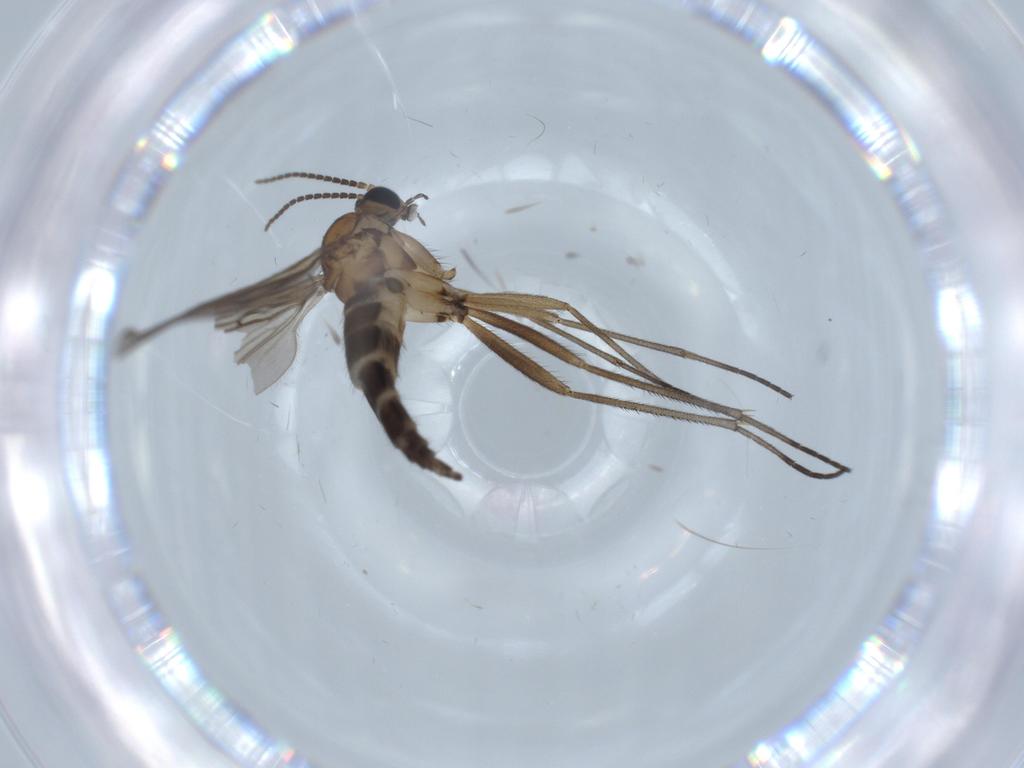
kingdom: Animalia
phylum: Arthropoda
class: Insecta
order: Diptera
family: Sciaridae
